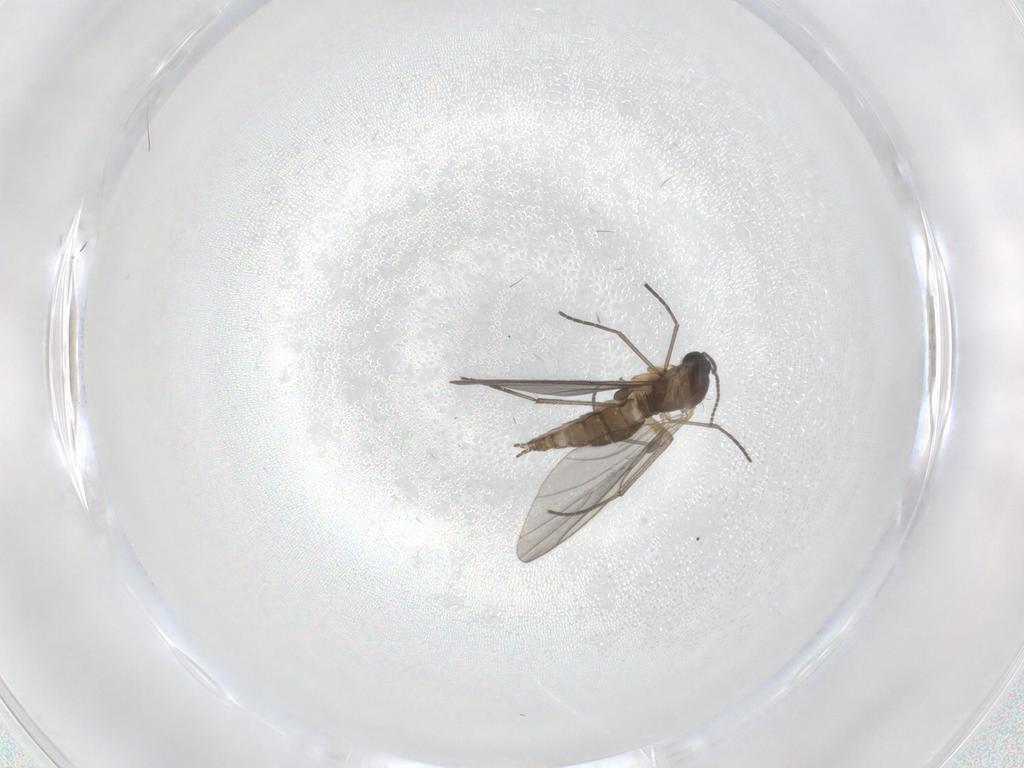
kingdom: Animalia
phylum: Arthropoda
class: Insecta
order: Diptera
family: Sciaridae
